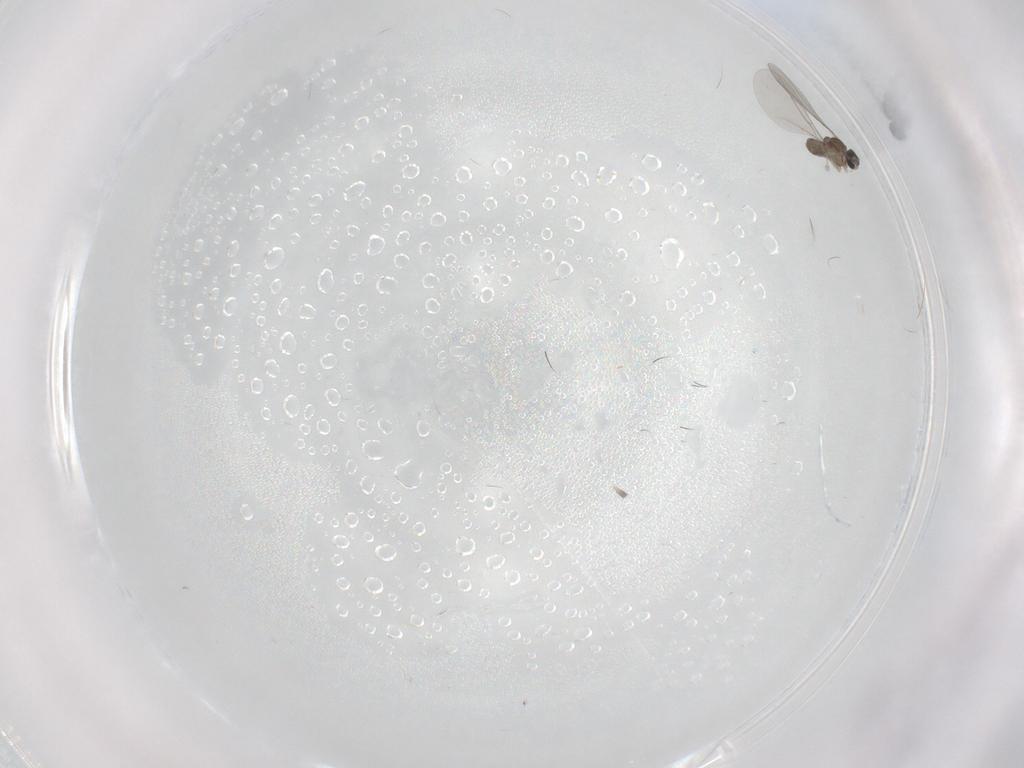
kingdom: Animalia
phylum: Arthropoda
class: Insecta
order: Diptera
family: Sciaridae
